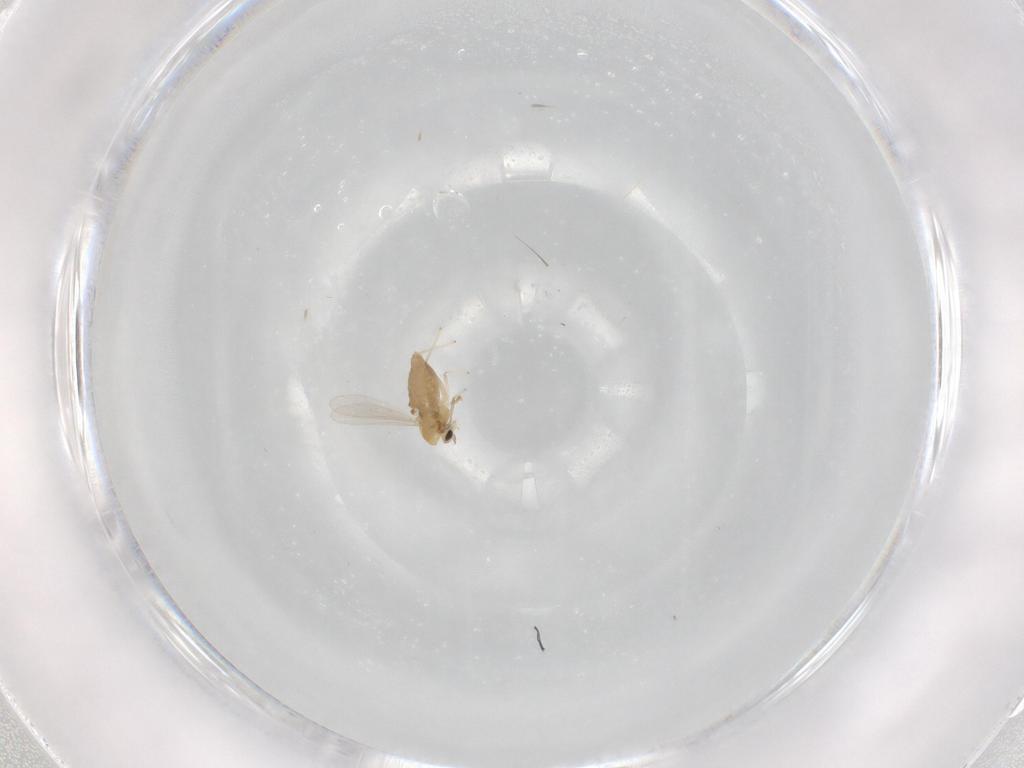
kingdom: Animalia
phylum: Arthropoda
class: Insecta
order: Diptera
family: Chironomidae
